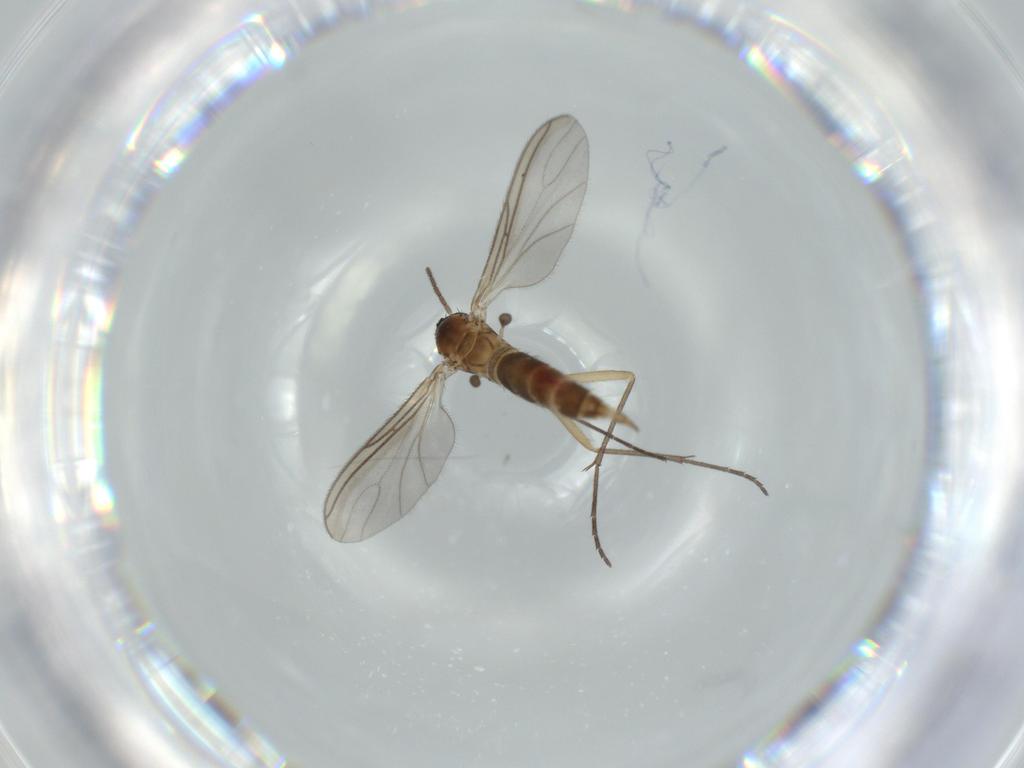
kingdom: Animalia
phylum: Arthropoda
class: Insecta
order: Diptera
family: Sciaridae
